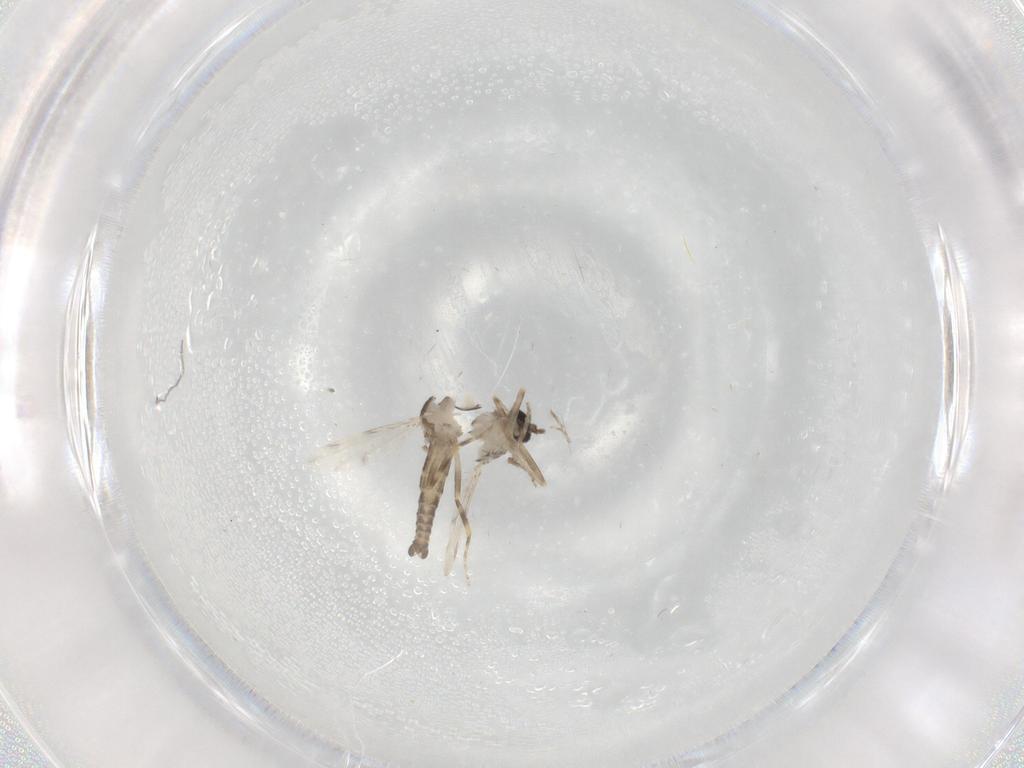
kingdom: Animalia
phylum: Arthropoda
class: Insecta
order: Diptera
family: Ceratopogonidae
